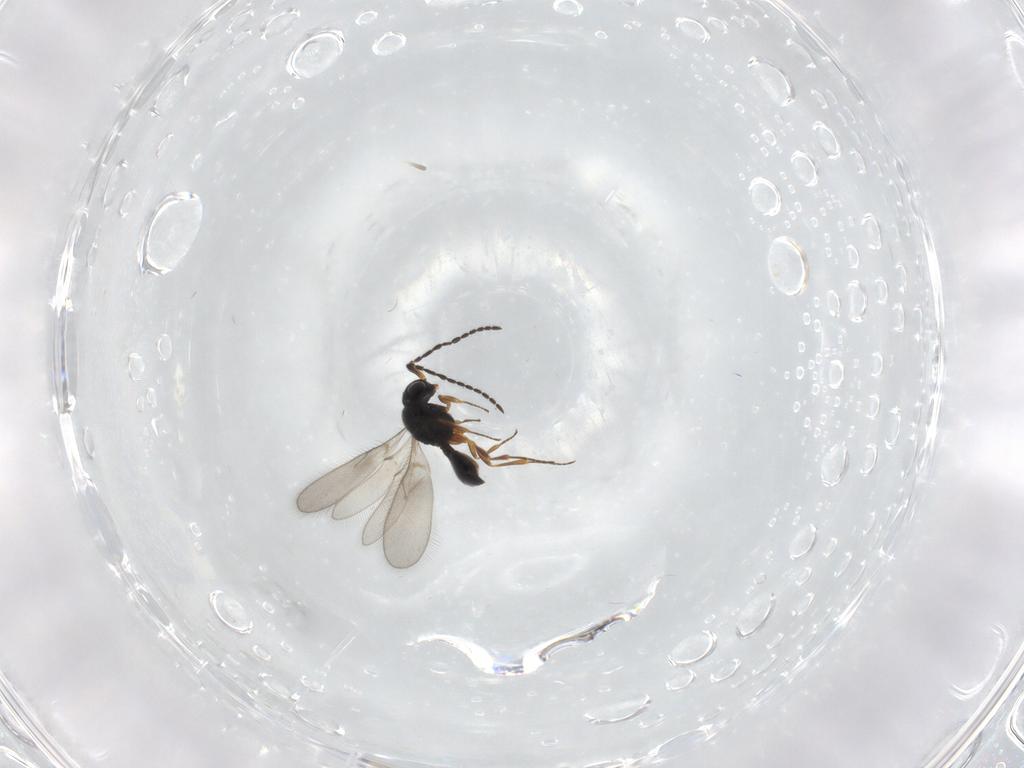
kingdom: Animalia
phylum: Arthropoda
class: Insecta
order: Hymenoptera
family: Scelionidae
